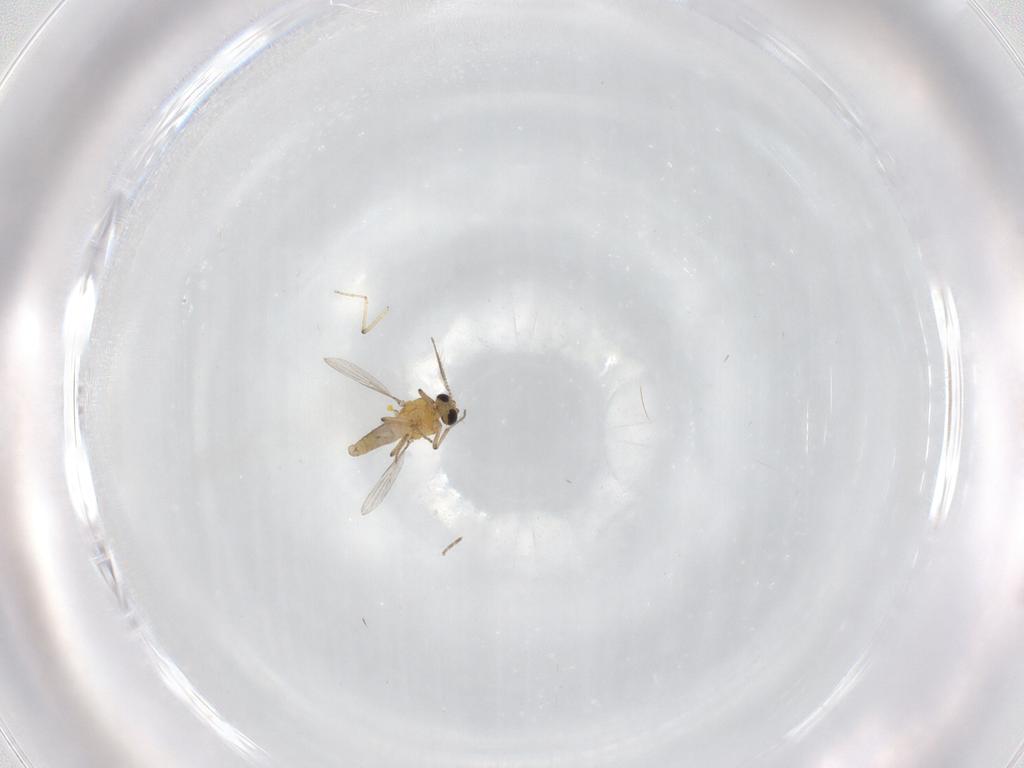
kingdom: Animalia
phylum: Arthropoda
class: Insecta
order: Diptera
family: Ceratopogonidae
